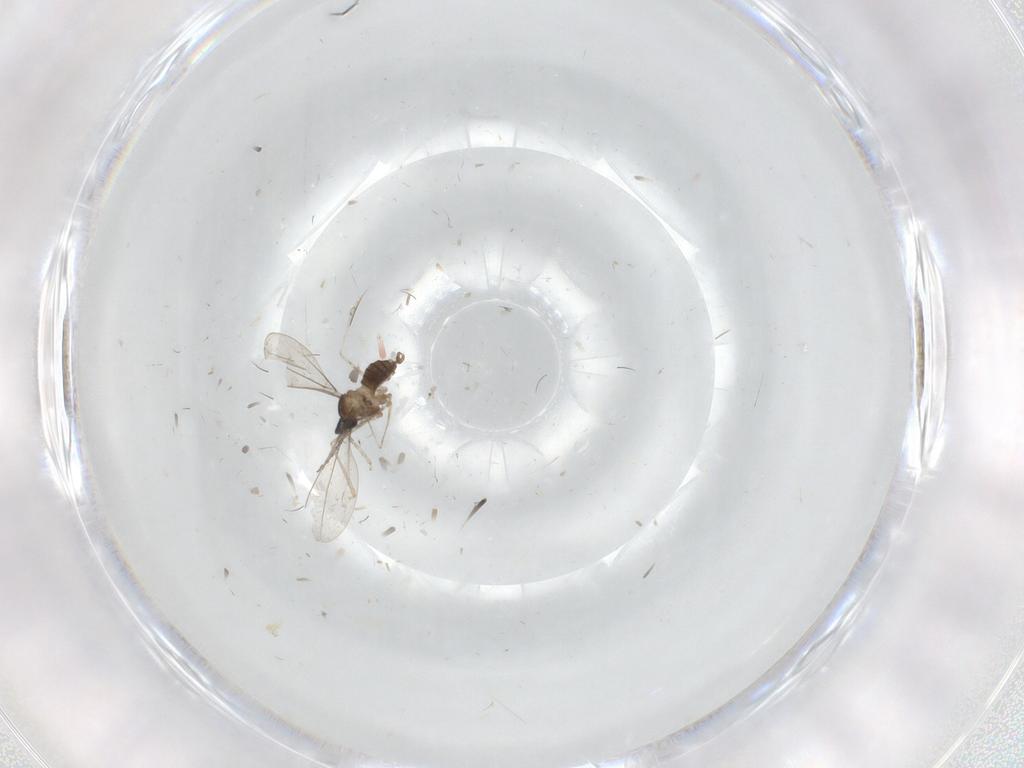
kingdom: Animalia
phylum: Arthropoda
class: Insecta
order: Diptera
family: Cecidomyiidae
